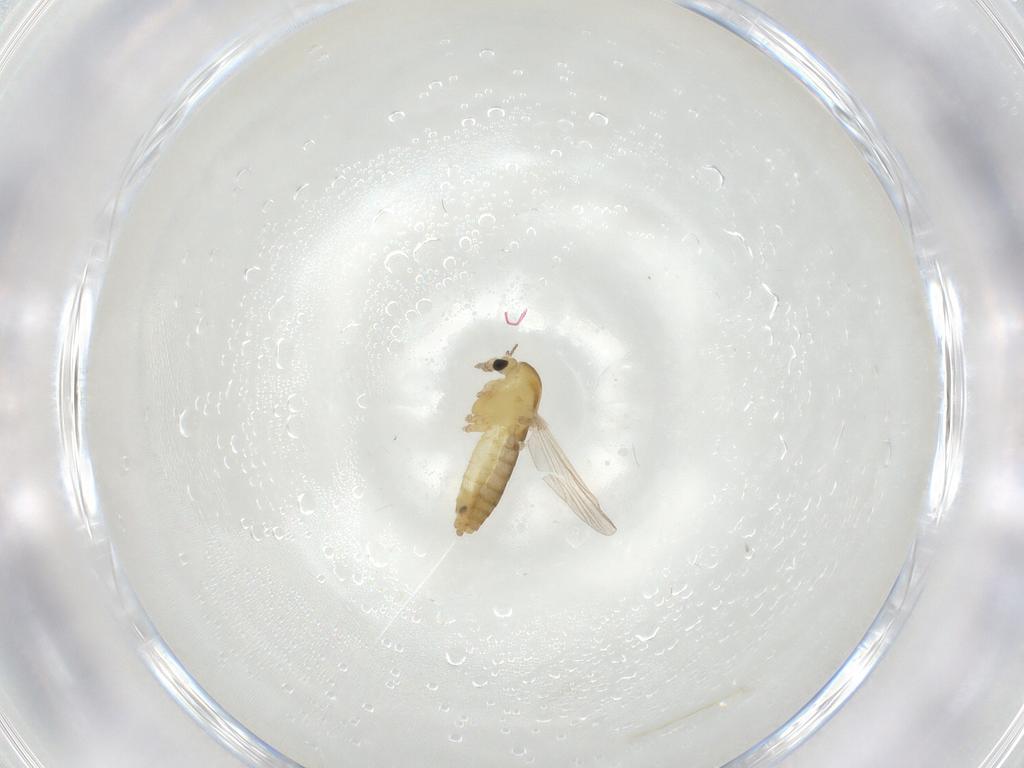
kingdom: Animalia
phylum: Arthropoda
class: Insecta
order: Diptera
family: Chironomidae
